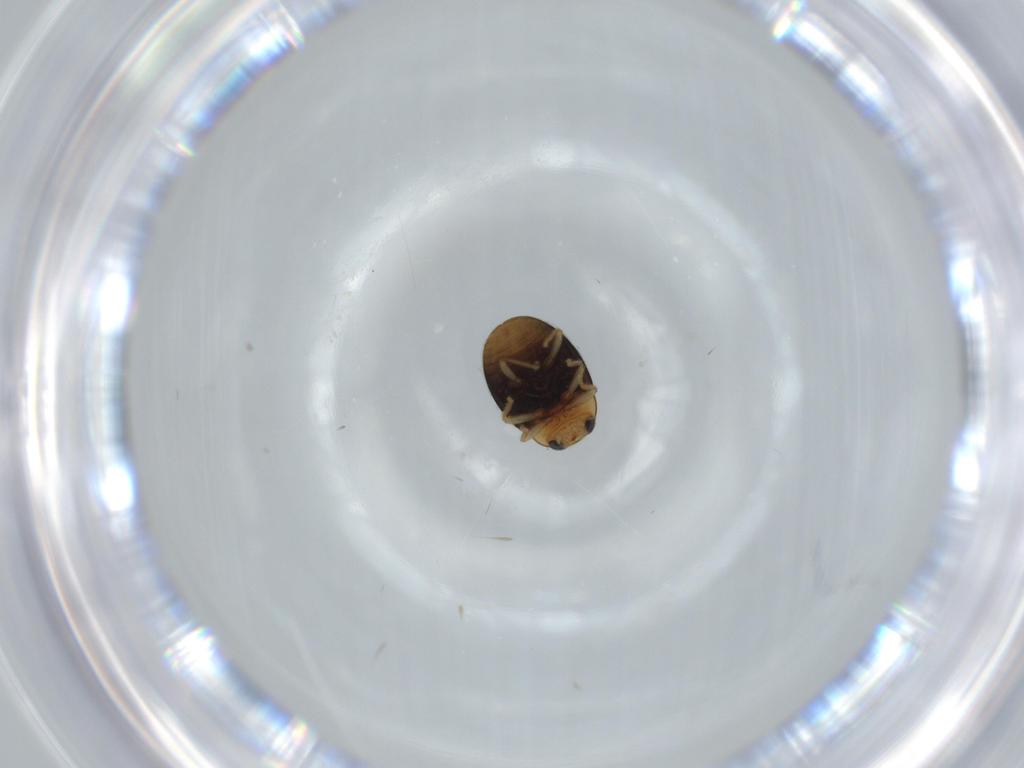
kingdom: Animalia
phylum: Arthropoda
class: Insecta
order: Coleoptera
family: Coccinellidae
